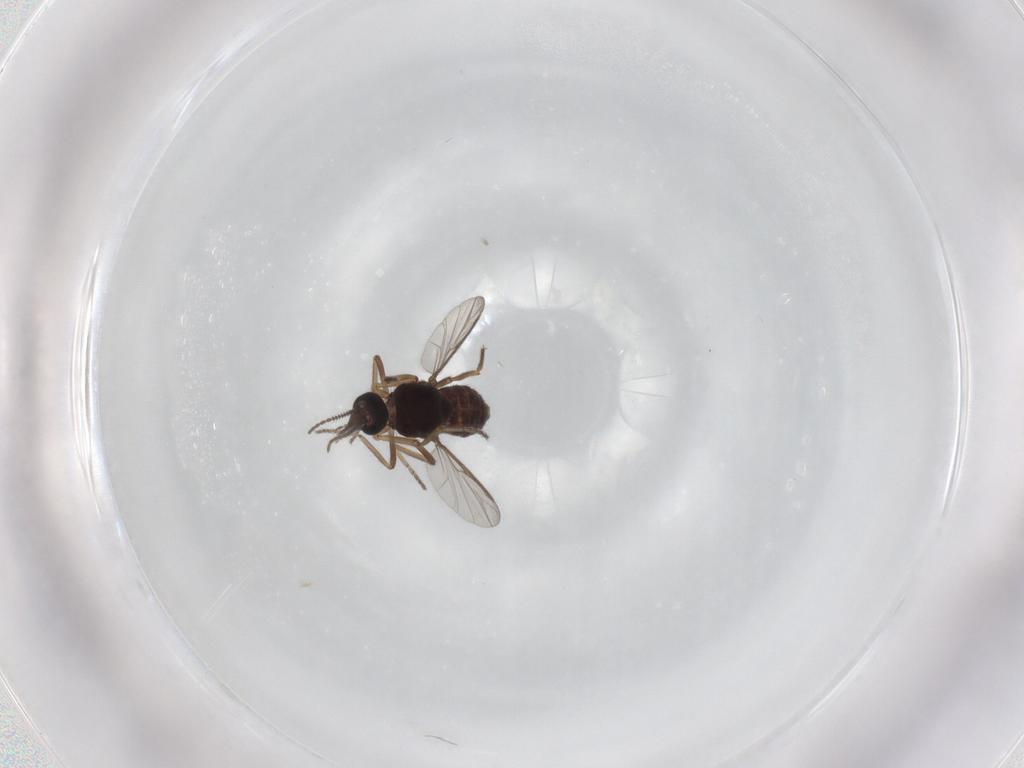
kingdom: Animalia
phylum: Arthropoda
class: Insecta
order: Diptera
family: Ceratopogonidae
